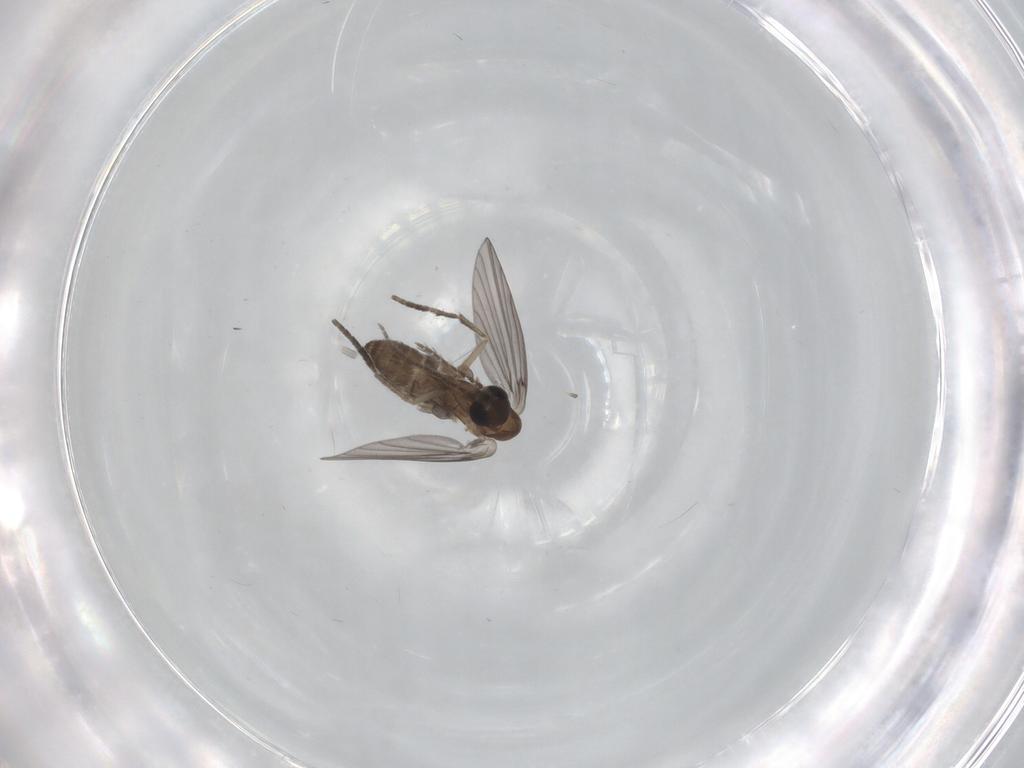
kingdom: Animalia
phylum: Arthropoda
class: Insecta
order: Diptera
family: Psychodidae
